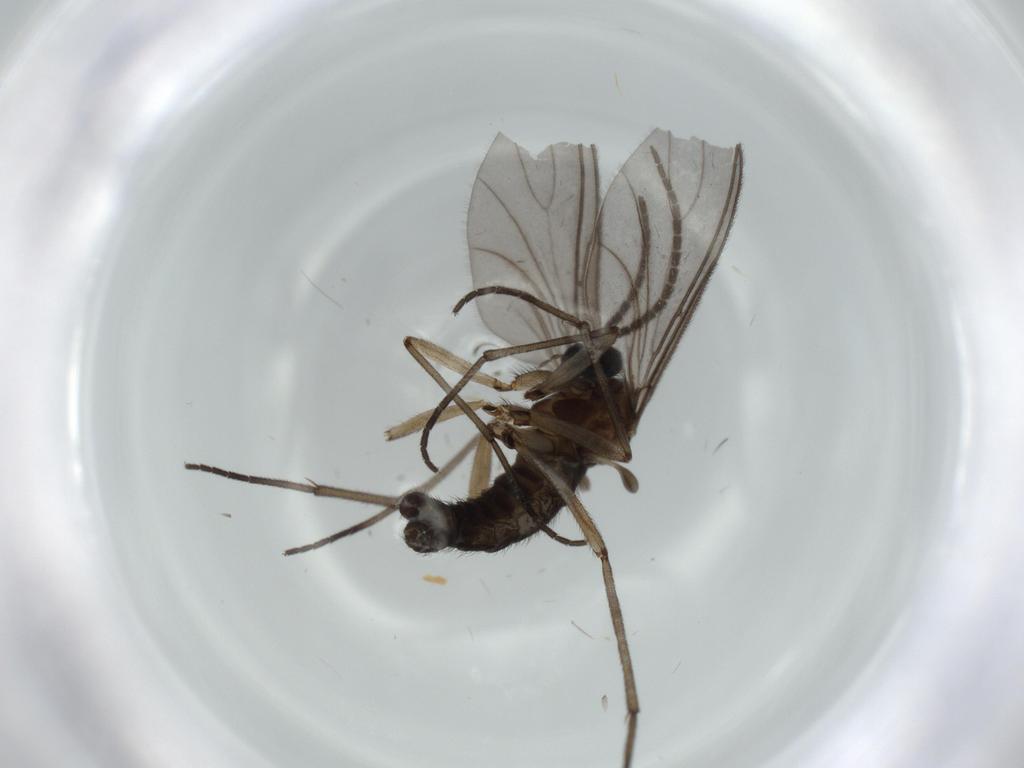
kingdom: Animalia
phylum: Arthropoda
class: Insecta
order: Diptera
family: Sciaridae
